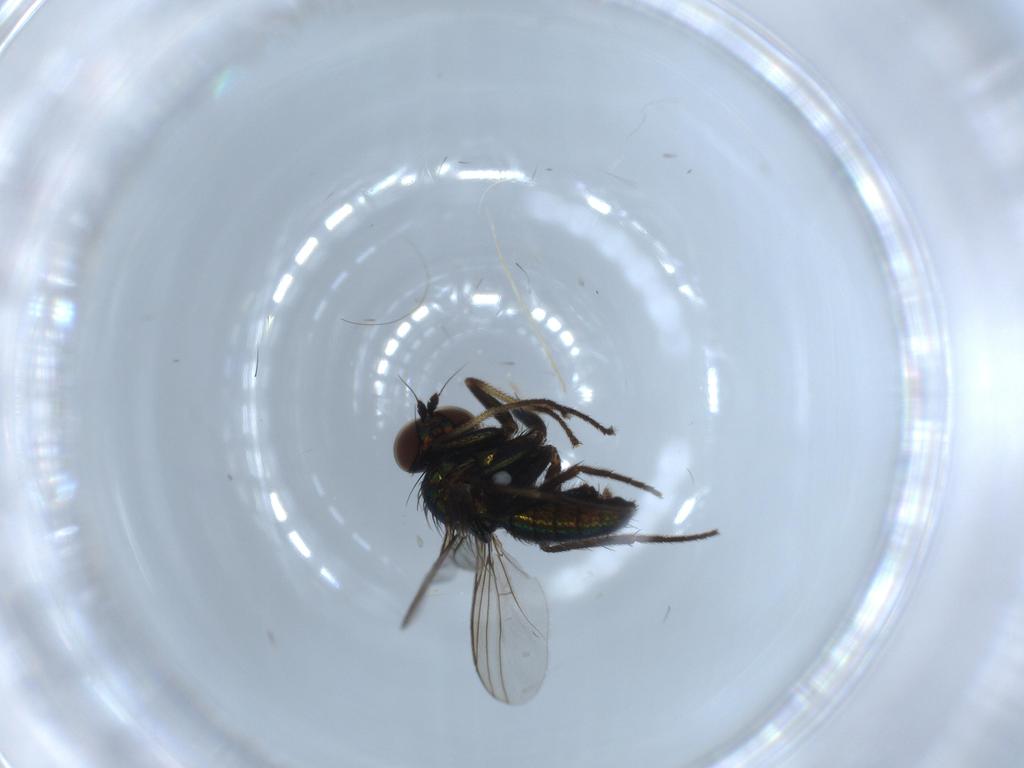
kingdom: Animalia
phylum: Arthropoda
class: Insecta
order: Diptera
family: Dolichopodidae
